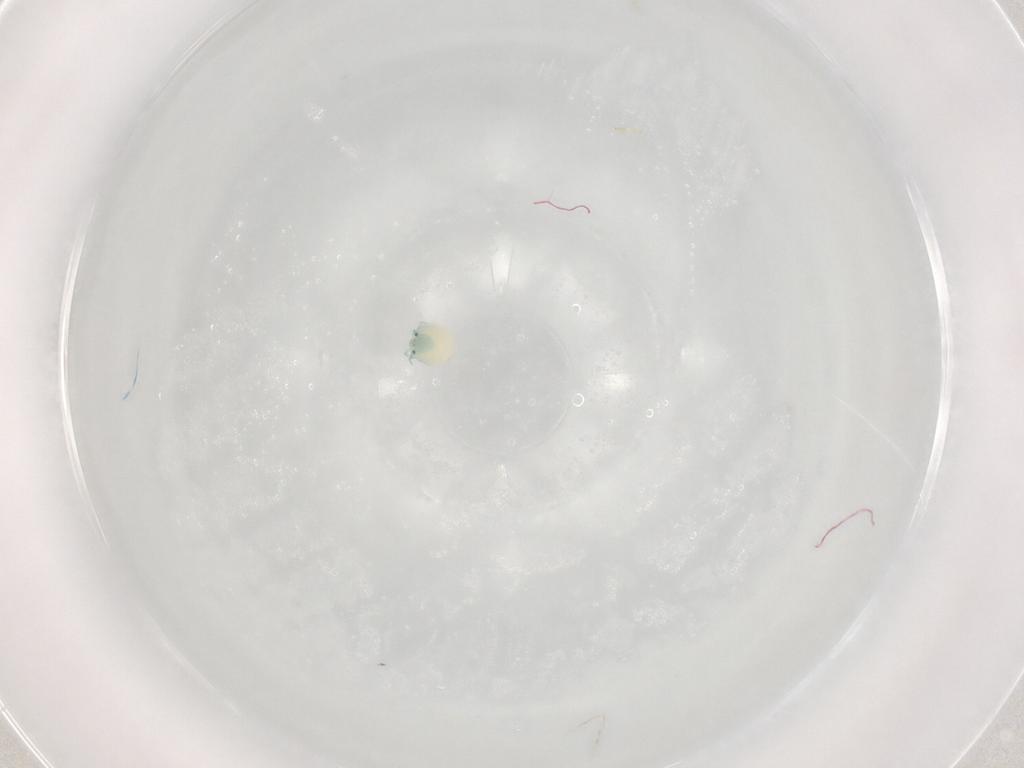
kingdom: Animalia
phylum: Arthropoda
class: Arachnida
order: Trombidiformes
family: Arrenuridae
